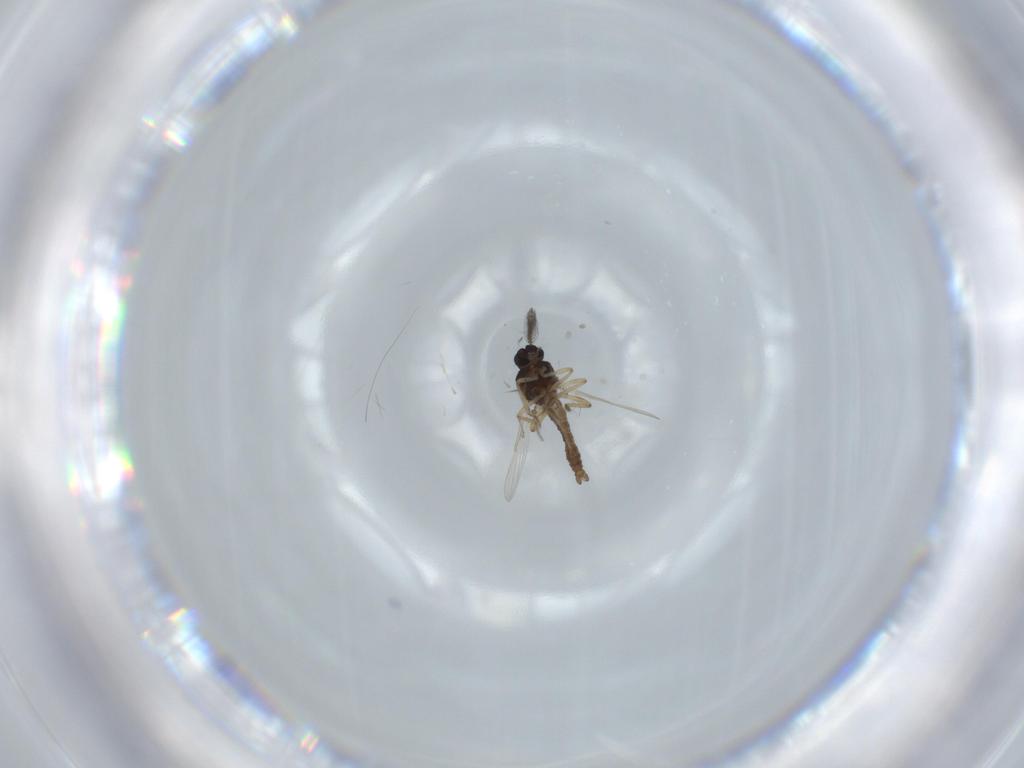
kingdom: Animalia
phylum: Arthropoda
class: Insecta
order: Diptera
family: Ceratopogonidae
